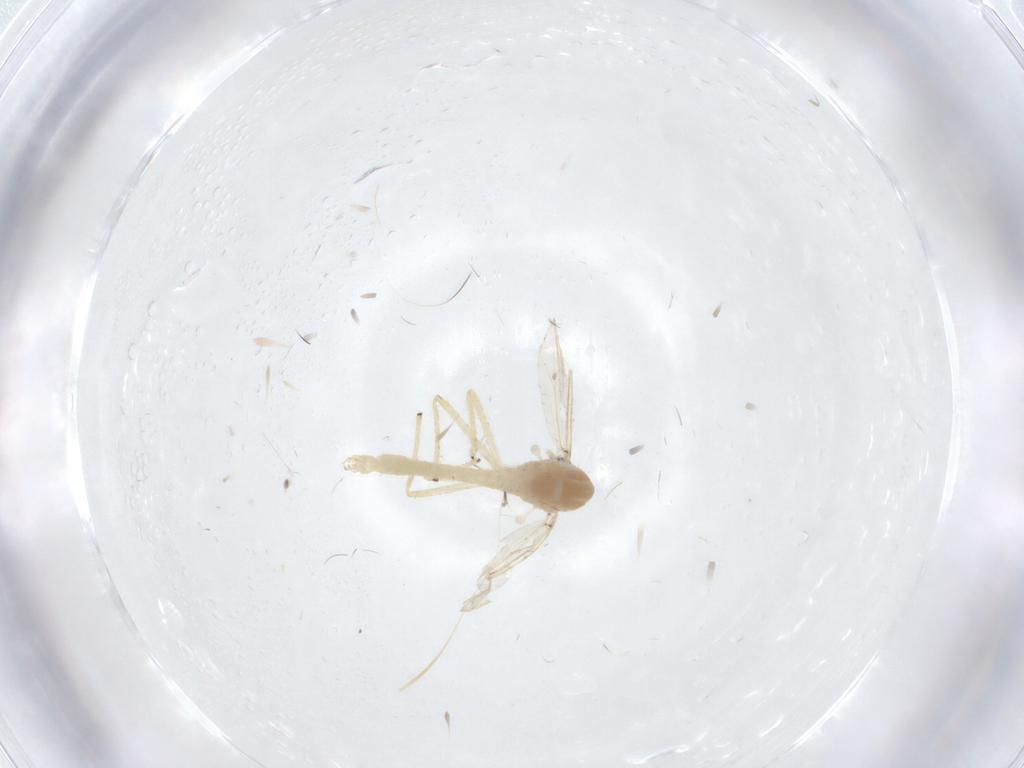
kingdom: Animalia
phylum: Arthropoda
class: Insecta
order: Diptera
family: Chironomidae
